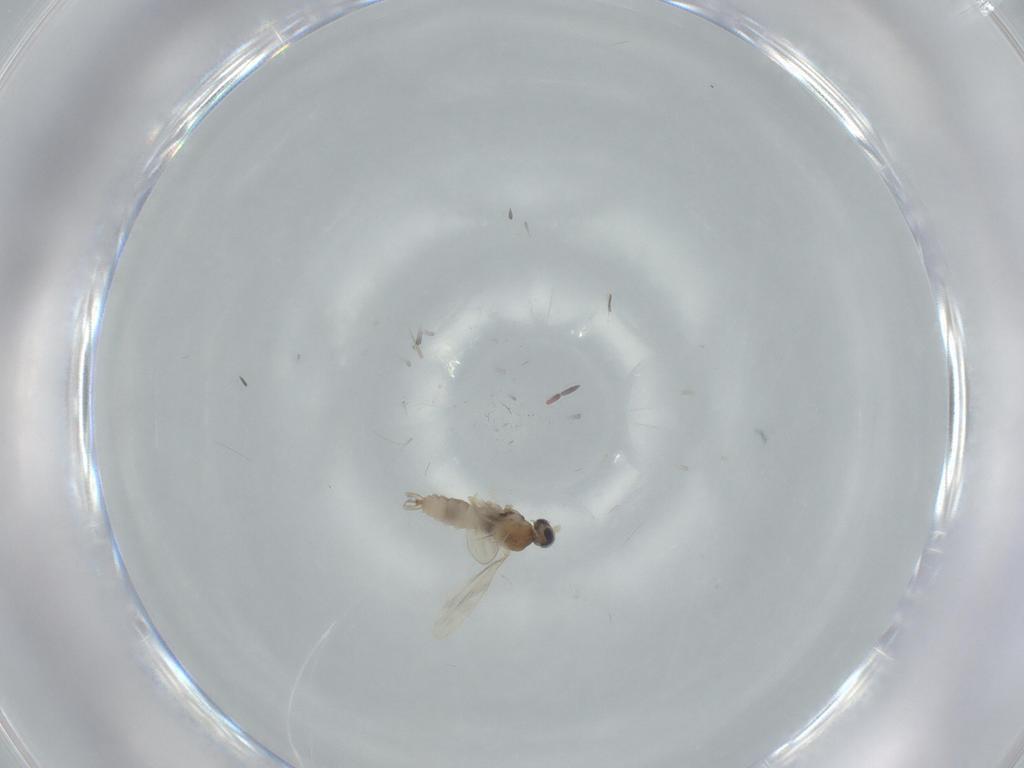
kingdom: Animalia
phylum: Arthropoda
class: Insecta
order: Diptera
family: Cecidomyiidae
